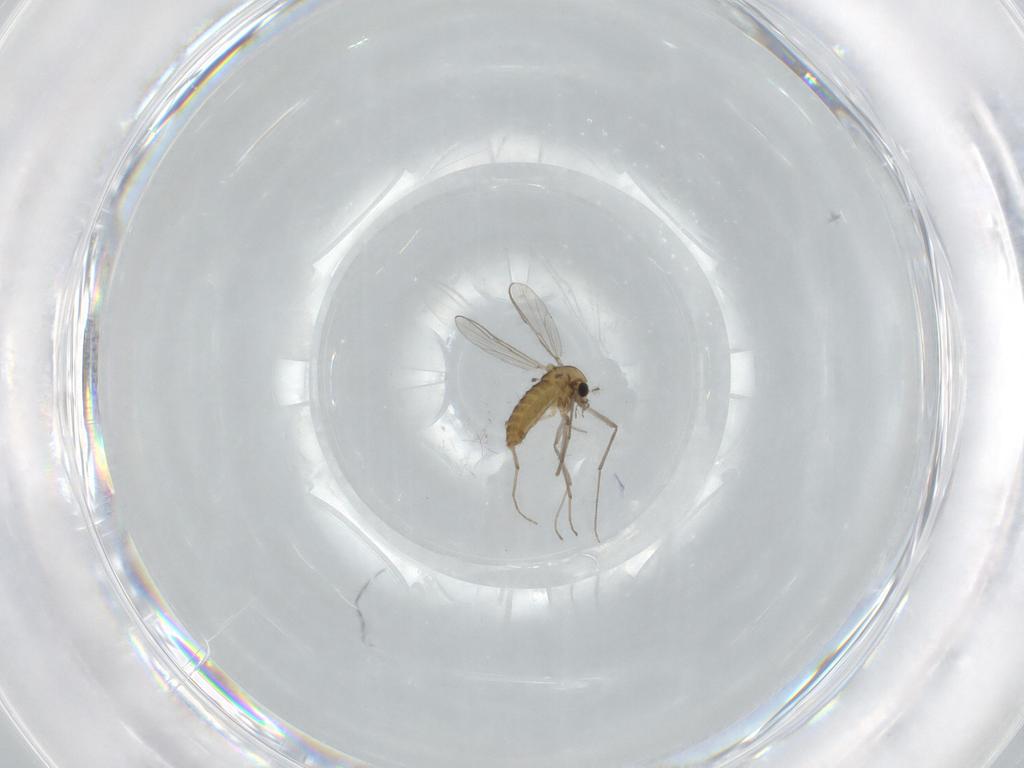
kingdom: Animalia
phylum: Arthropoda
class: Insecta
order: Diptera
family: Chironomidae
